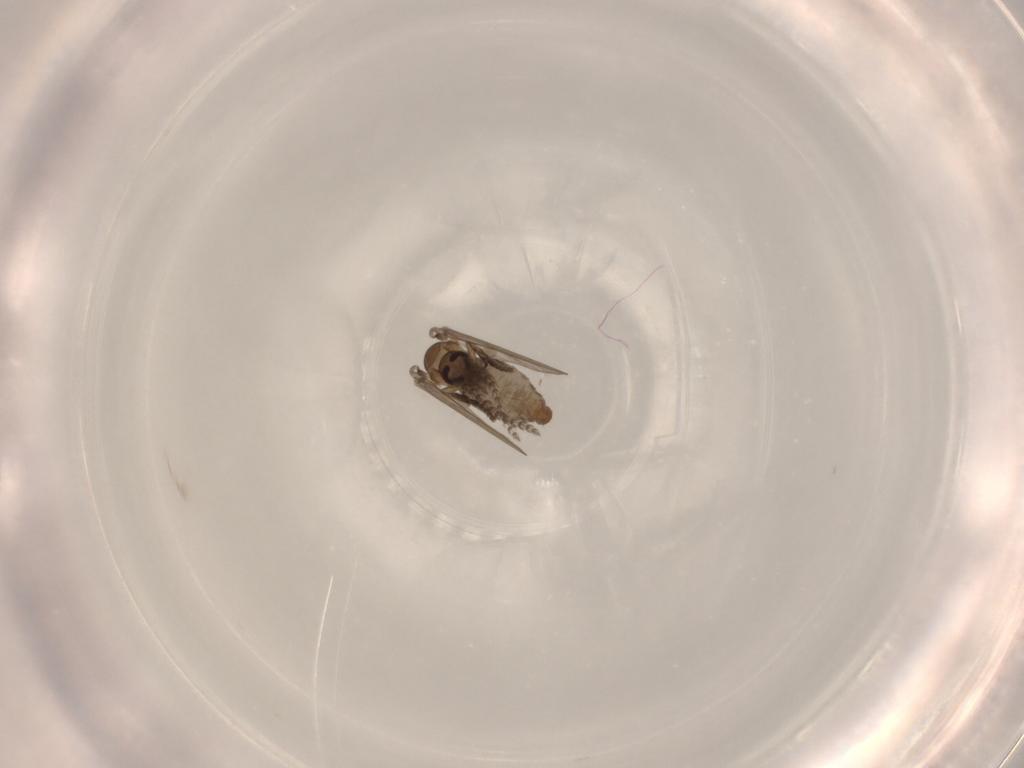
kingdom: Animalia
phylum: Arthropoda
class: Insecta
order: Diptera
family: Psychodidae
